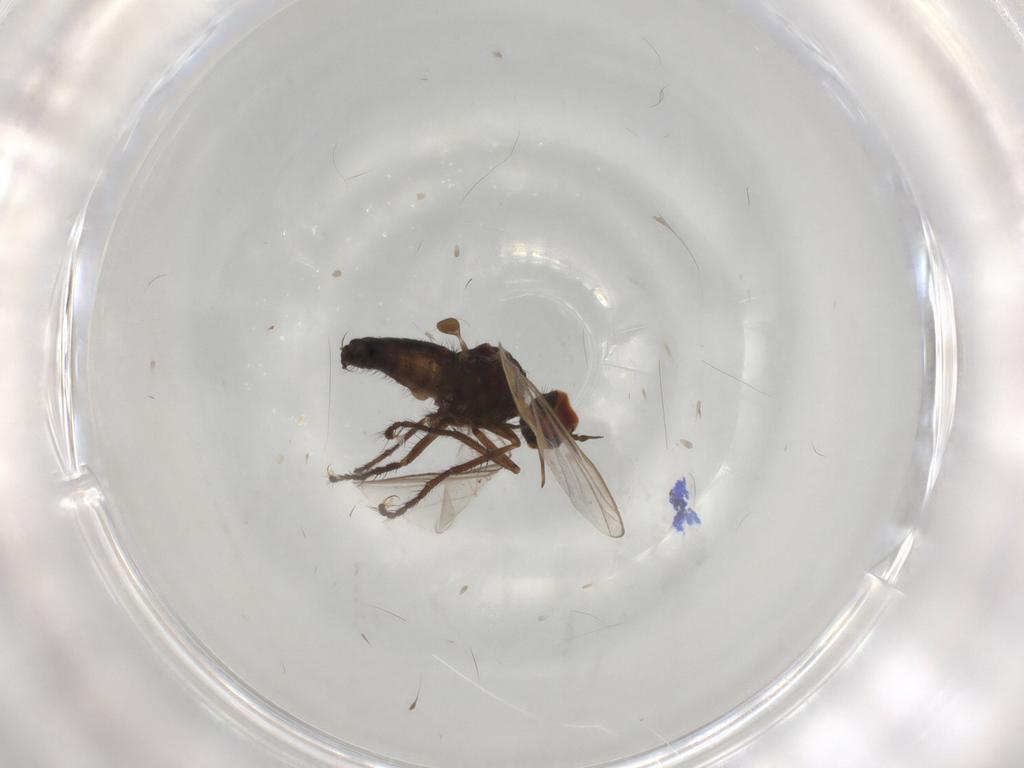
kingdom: Animalia
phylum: Arthropoda
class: Insecta
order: Diptera
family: Empididae
